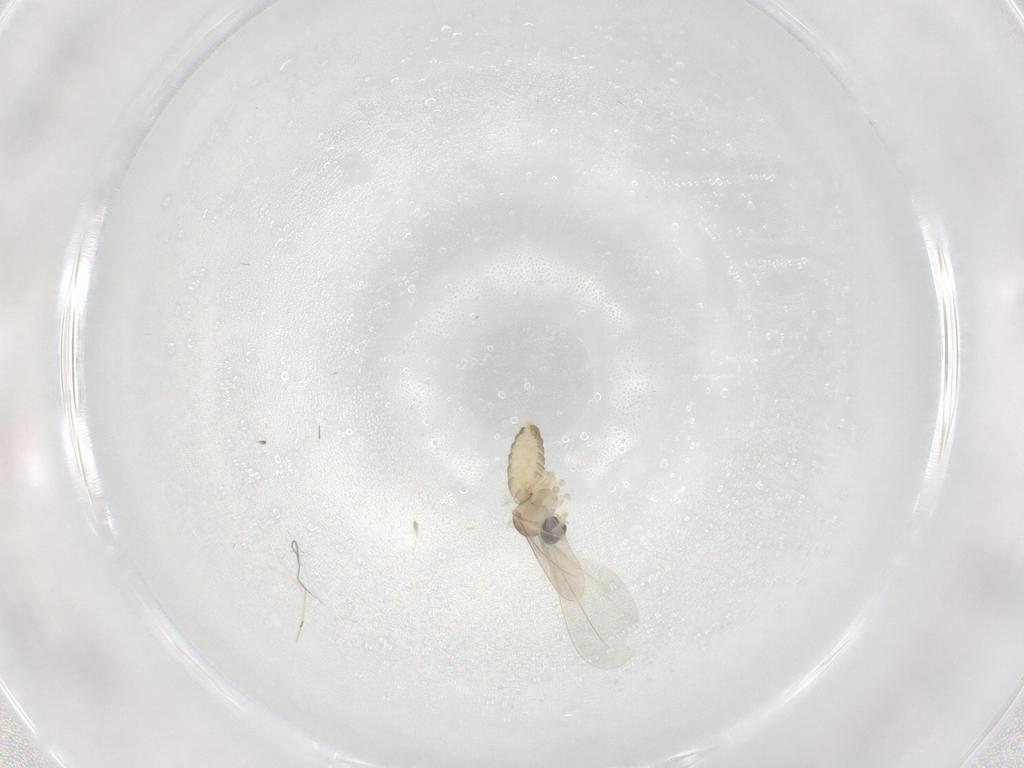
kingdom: Animalia
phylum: Arthropoda
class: Insecta
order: Diptera
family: Cecidomyiidae
